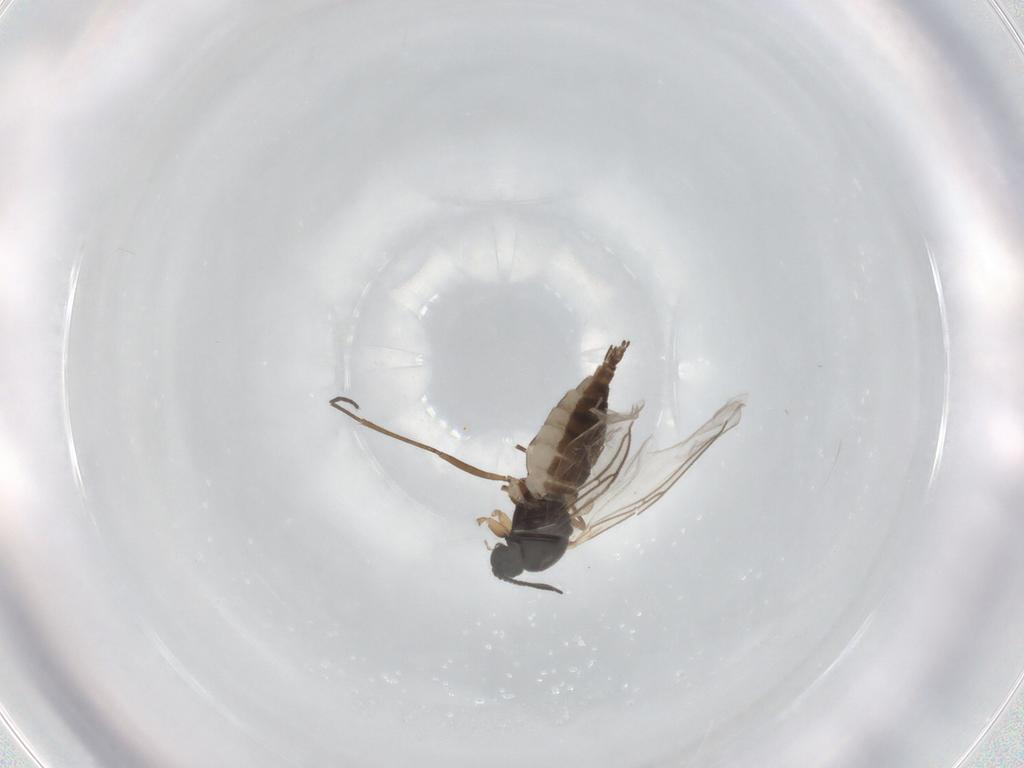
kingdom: Animalia
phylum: Arthropoda
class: Insecta
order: Diptera
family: Sciaridae
